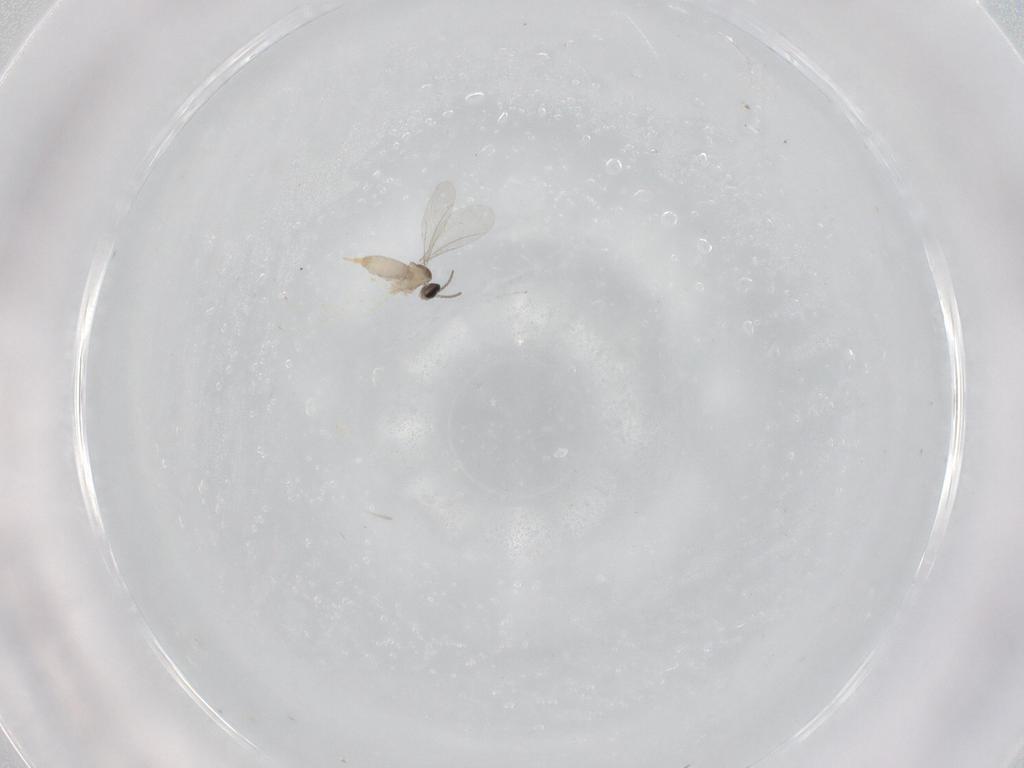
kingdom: Animalia
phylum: Arthropoda
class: Insecta
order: Diptera
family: Cecidomyiidae
